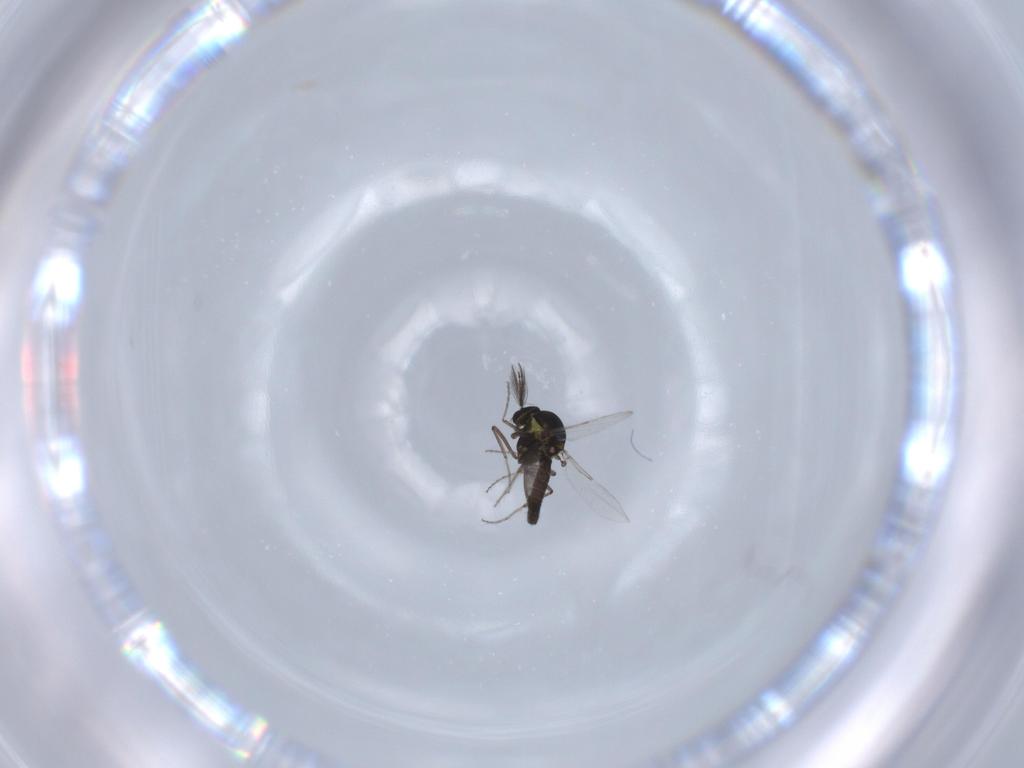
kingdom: Animalia
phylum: Arthropoda
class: Insecta
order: Diptera
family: Ceratopogonidae
